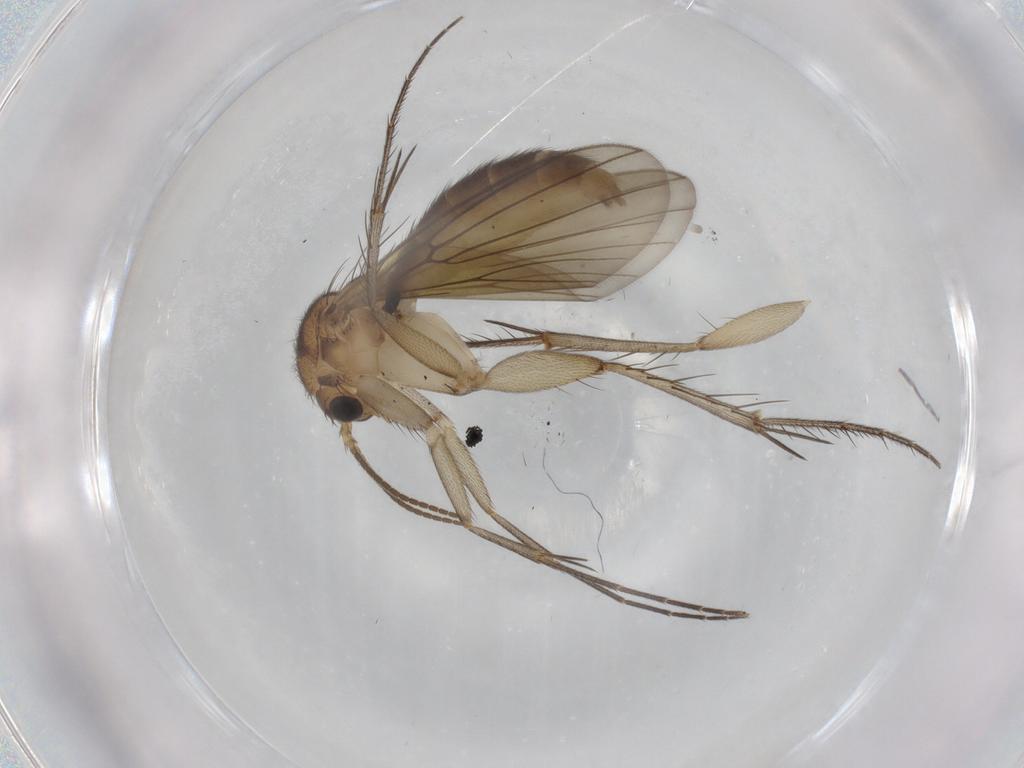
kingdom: Animalia
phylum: Arthropoda
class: Insecta
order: Diptera
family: Mycetophilidae
